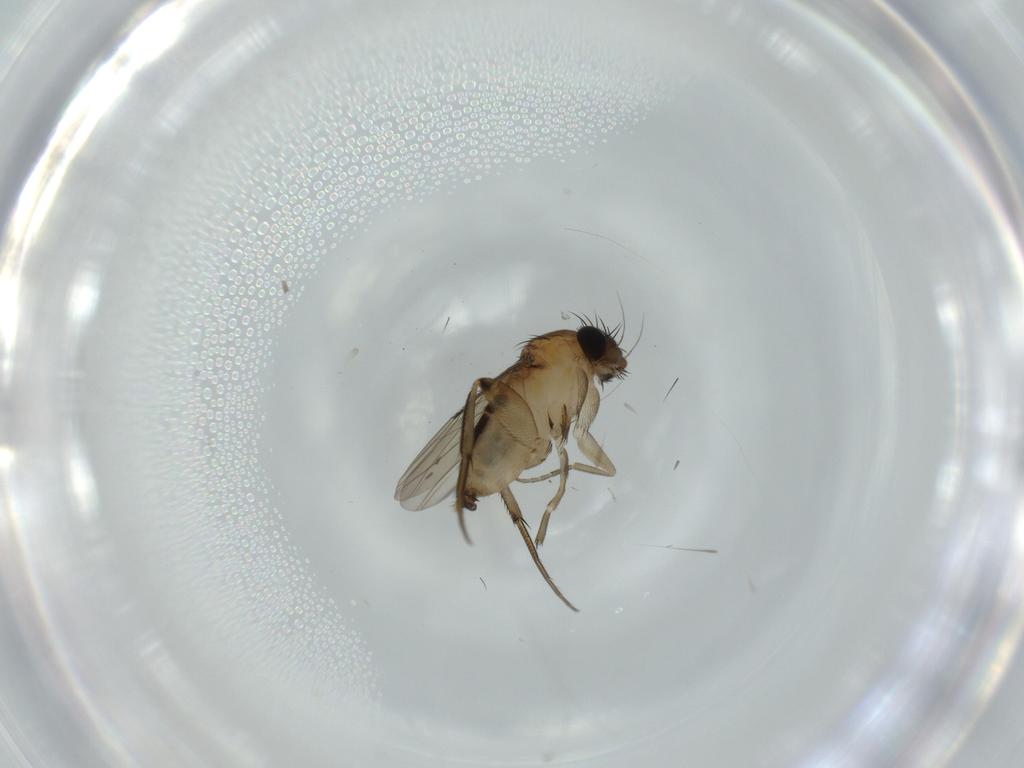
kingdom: Animalia
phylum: Arthropoda
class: Insecta
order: Diptera
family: Phoridae
